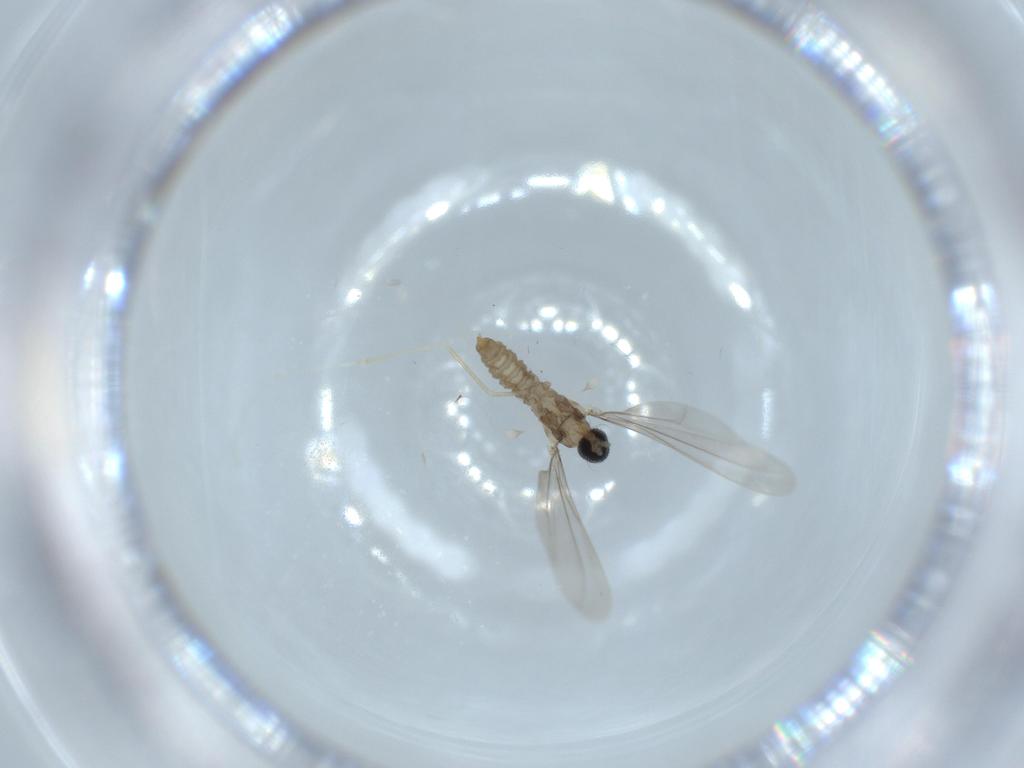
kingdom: Animalia
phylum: Arthropoda
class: Insecta
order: Diptera
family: Cecidomyiidae
